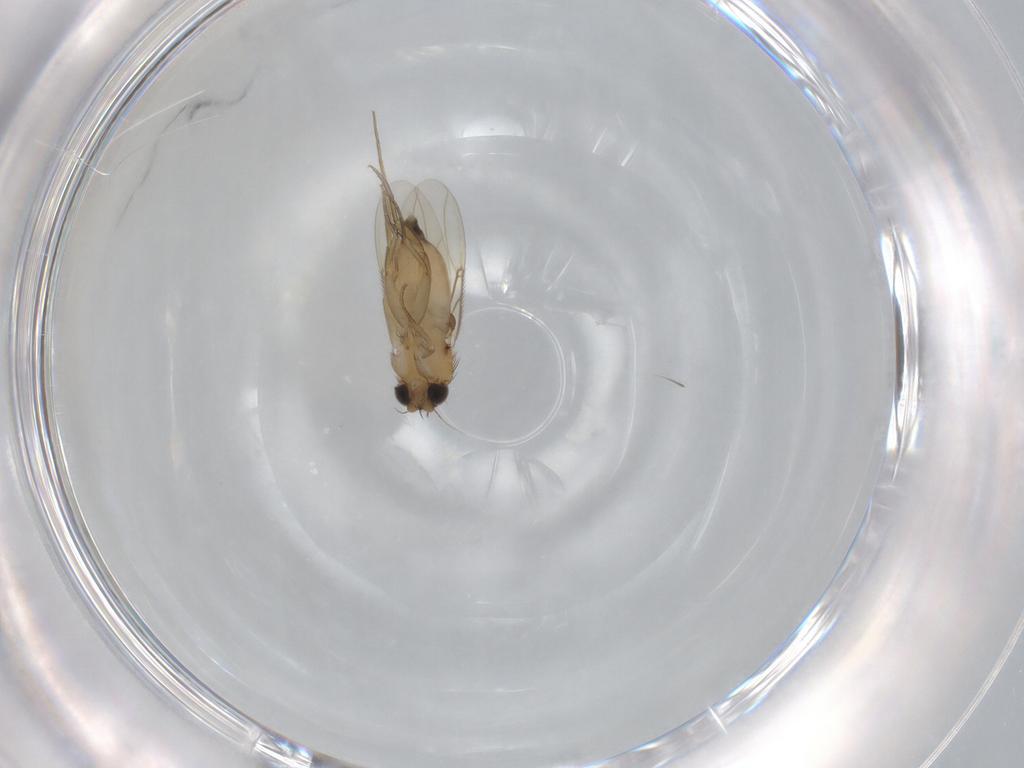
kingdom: Animalia
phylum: Arthropoda
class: Insecta
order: Diptera
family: Phoridae
